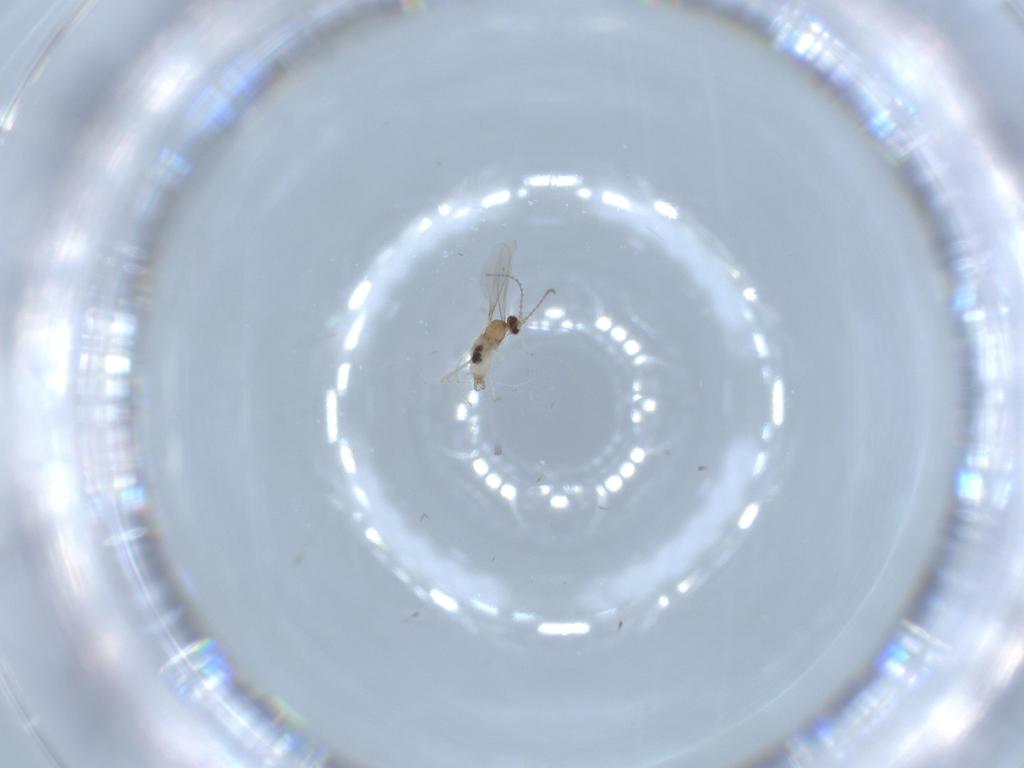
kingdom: Animalia
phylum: Arthropoda
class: Insecta
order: Diptera
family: Cecidomyiidae
